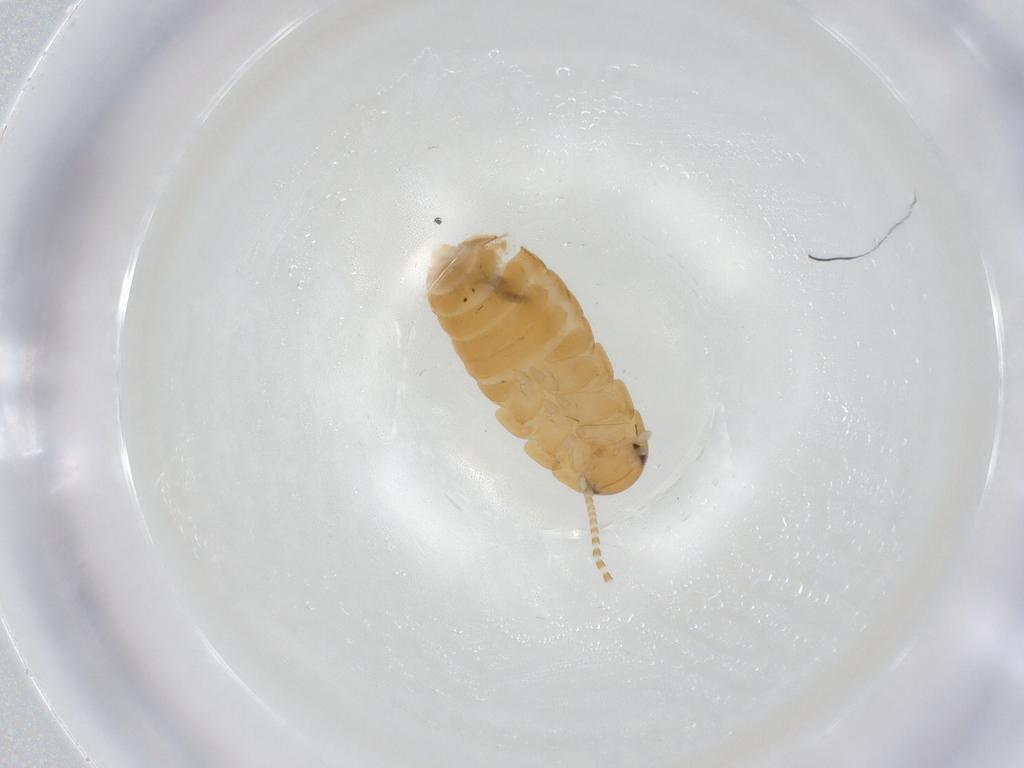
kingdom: Animalia
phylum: Arthropoda
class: Insecta
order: Blattodea
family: Blaberidae
